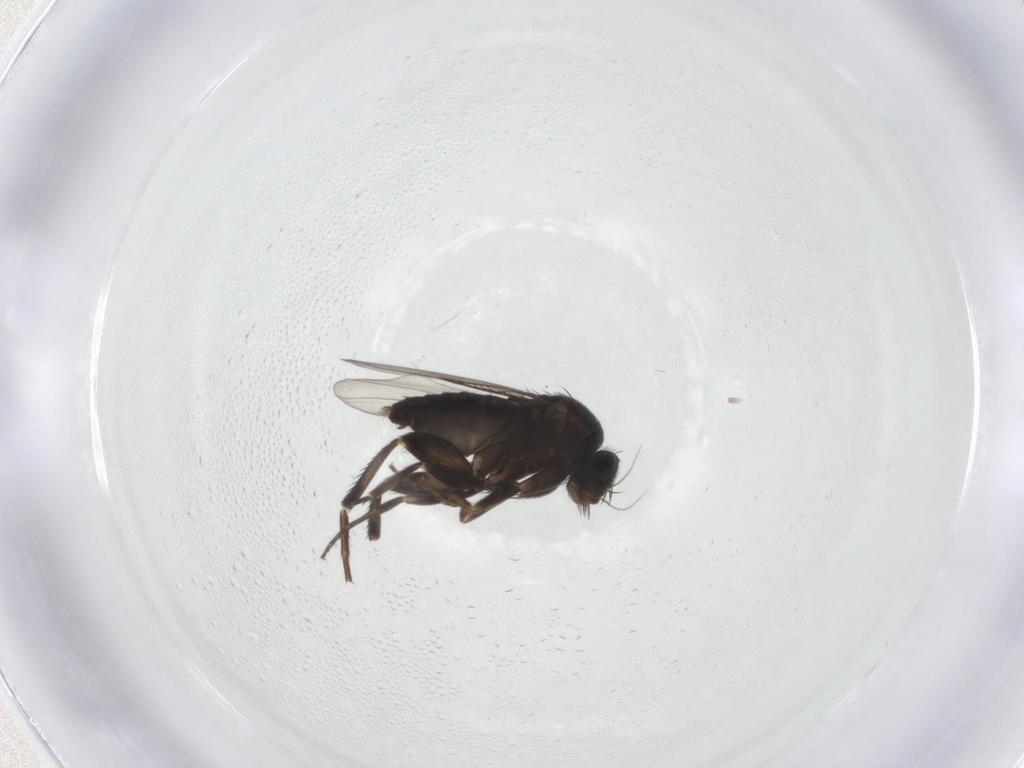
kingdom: Animalia
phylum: Arthropoda
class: Insecta
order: Diptera
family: Phoridae
